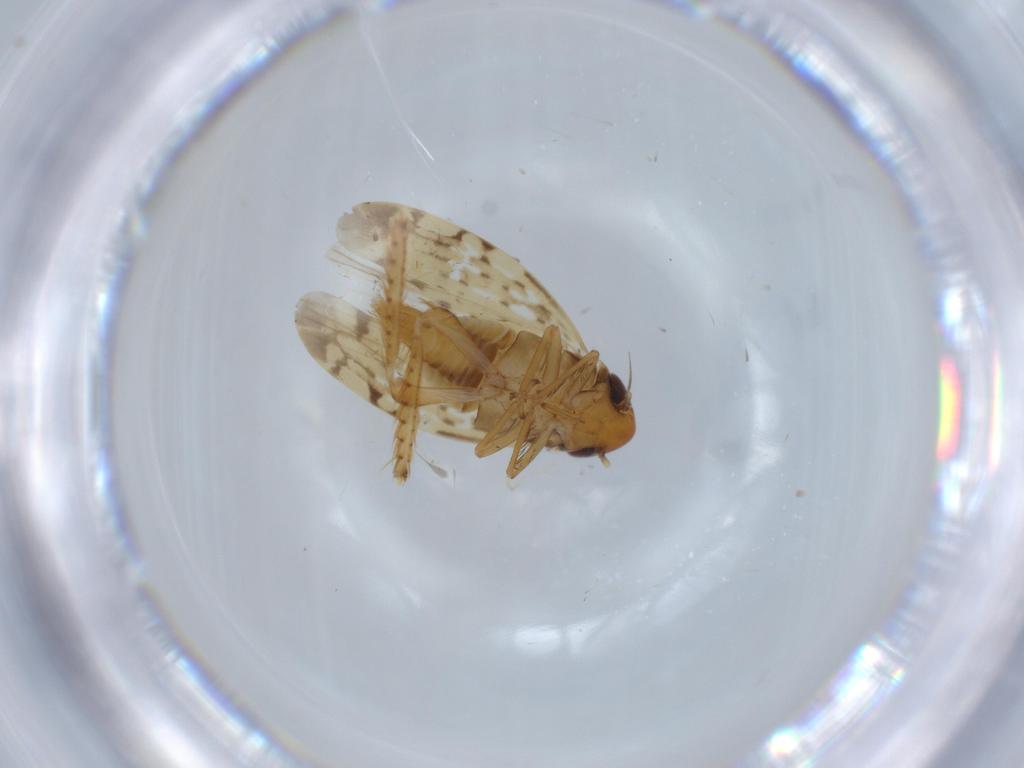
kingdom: Animalia
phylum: Arthropoda
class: Insecta
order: Hemiptera
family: Cicadellidae
